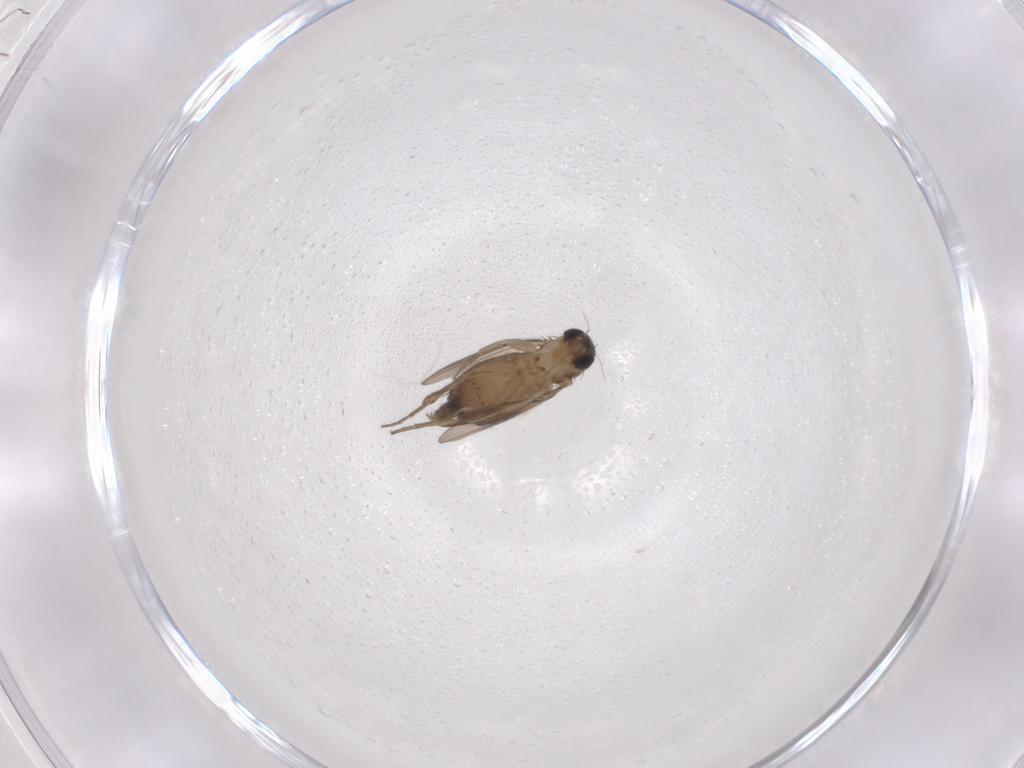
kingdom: Animalia
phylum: Arthropoda
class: Insecta
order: Diptera
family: Phoridae
